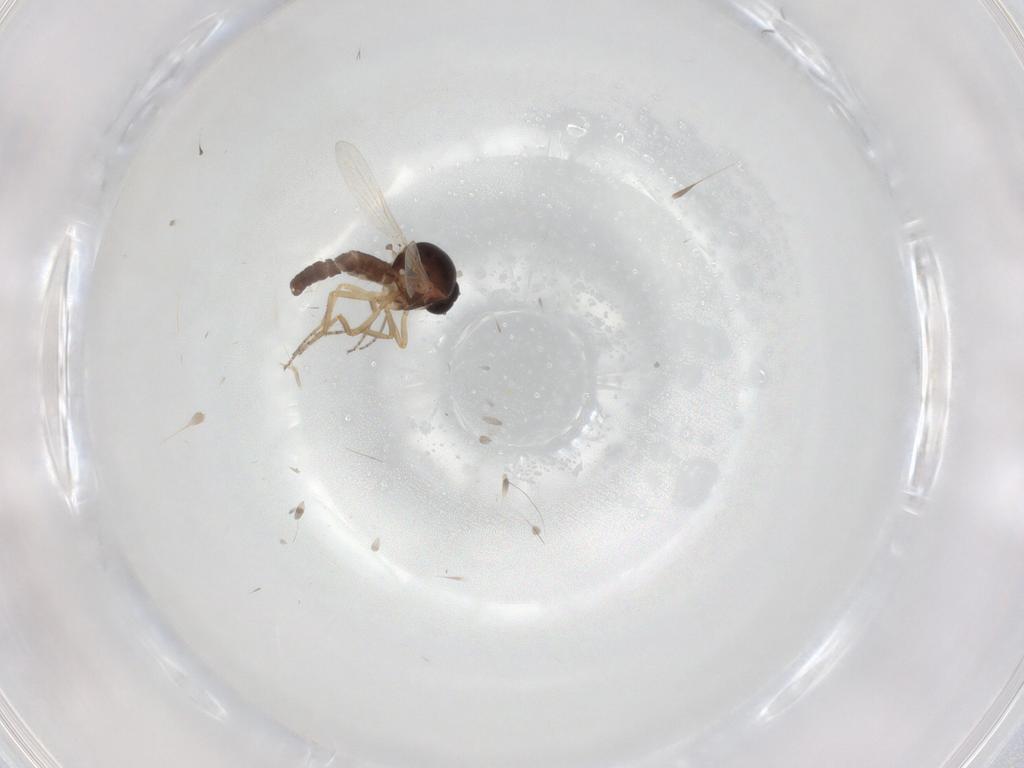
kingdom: Animalia
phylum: Arthropoda
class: Insecta
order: Diptera
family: Ceratopogonidae
